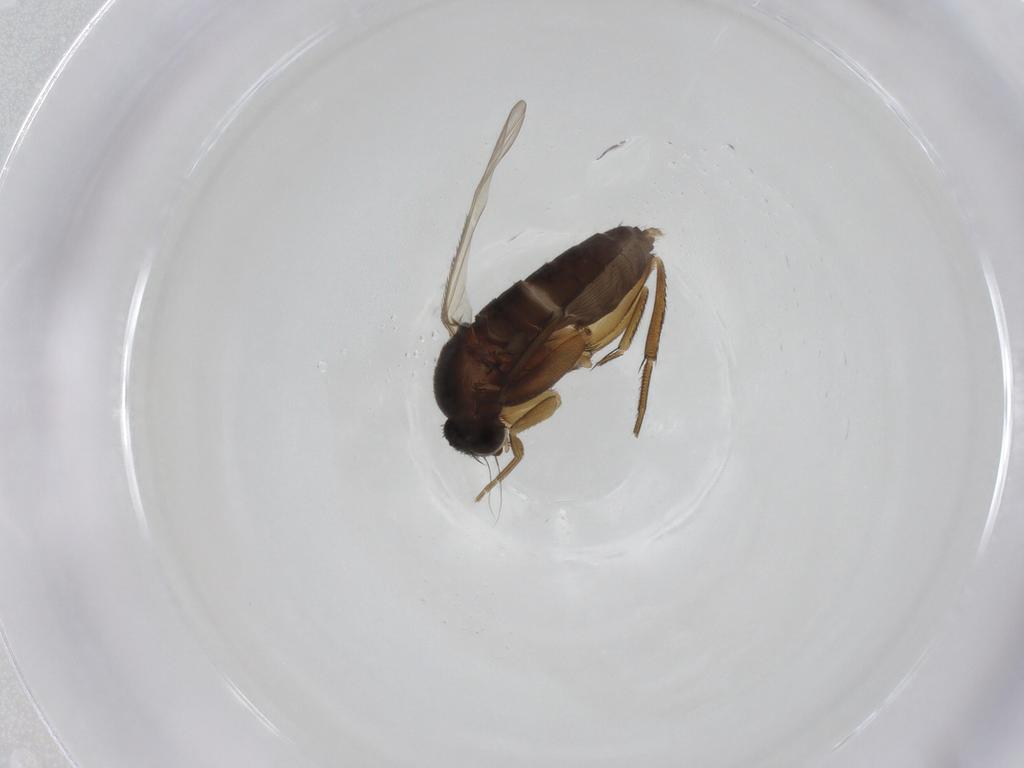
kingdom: Animalia
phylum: Arthropoda
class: Insecta
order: Diptera
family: Phoridae
